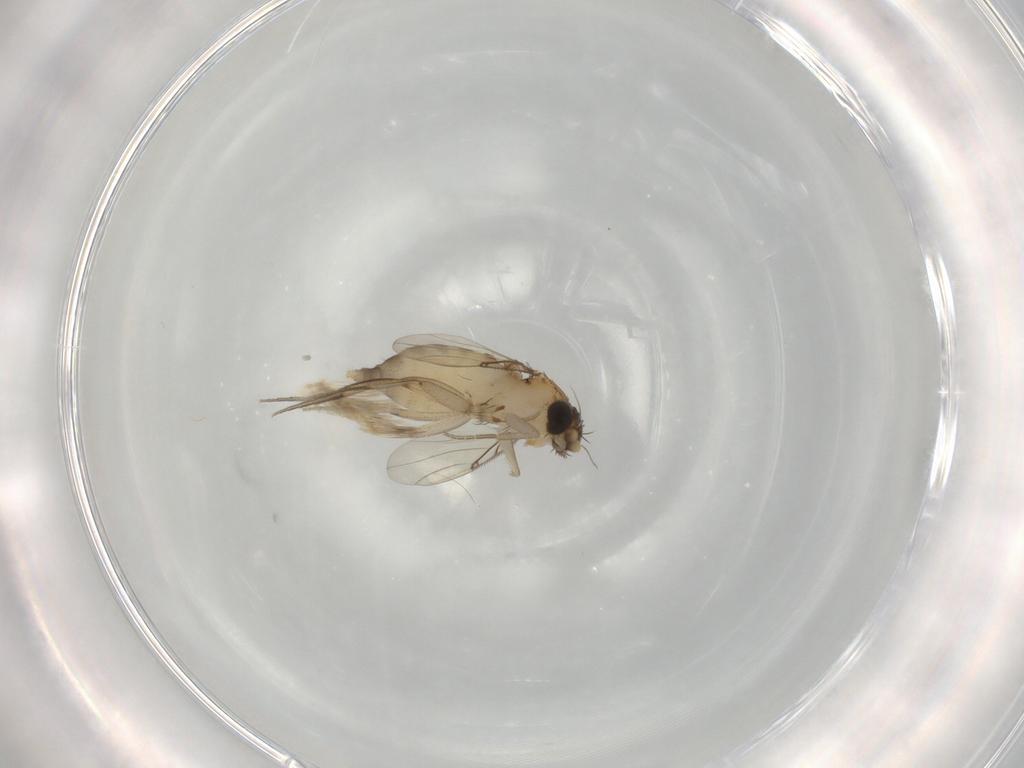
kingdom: Animalia
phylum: Arthropoda
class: Insecta
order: Diptera
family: Phoridae
